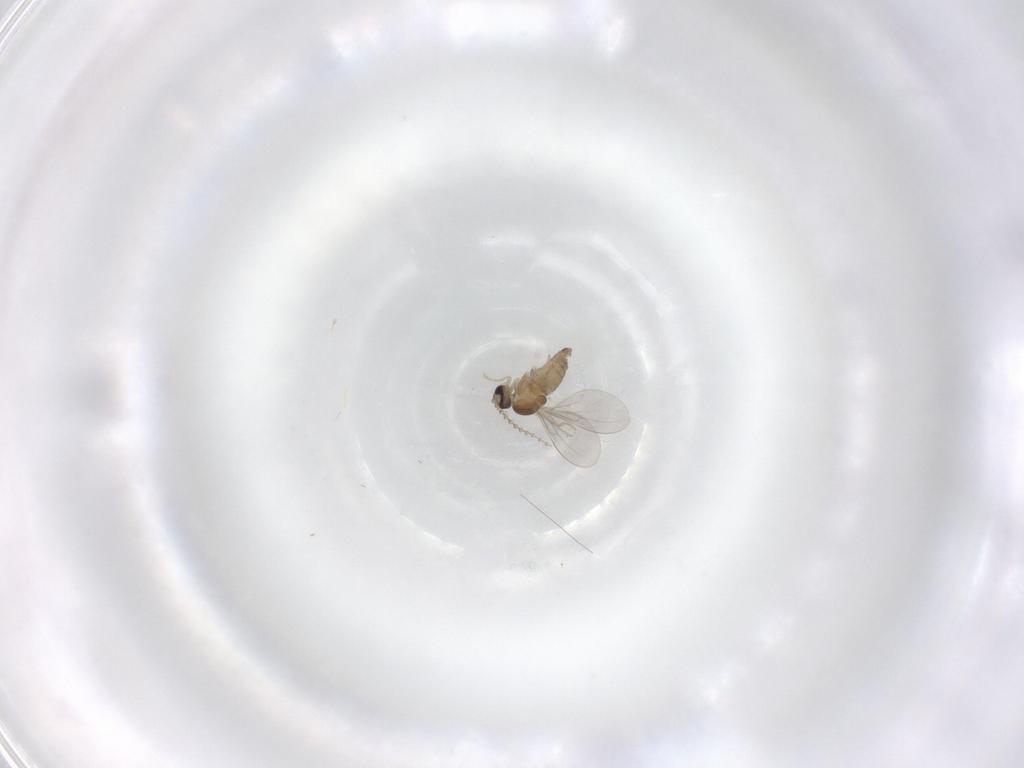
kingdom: Animalia
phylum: Arthropoda
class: Insecta
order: Diptera
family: Cecidomyiidae
